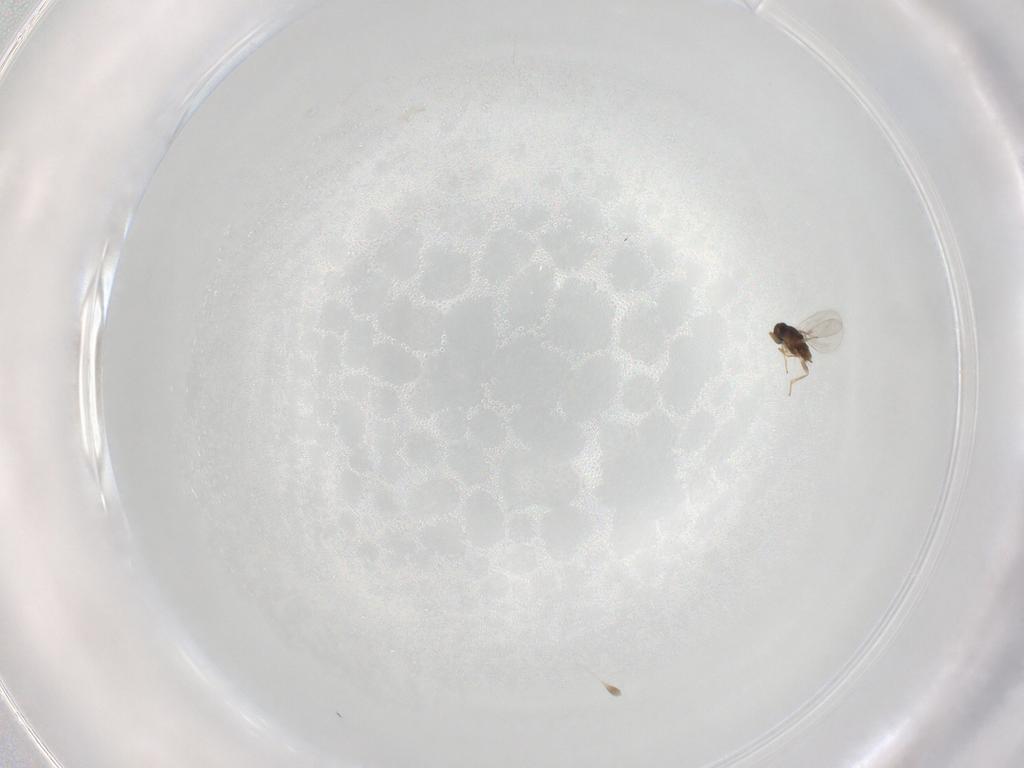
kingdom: Animalia
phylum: Arthropoda
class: Insecta
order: Hymenoptera
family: Encyrtidae
